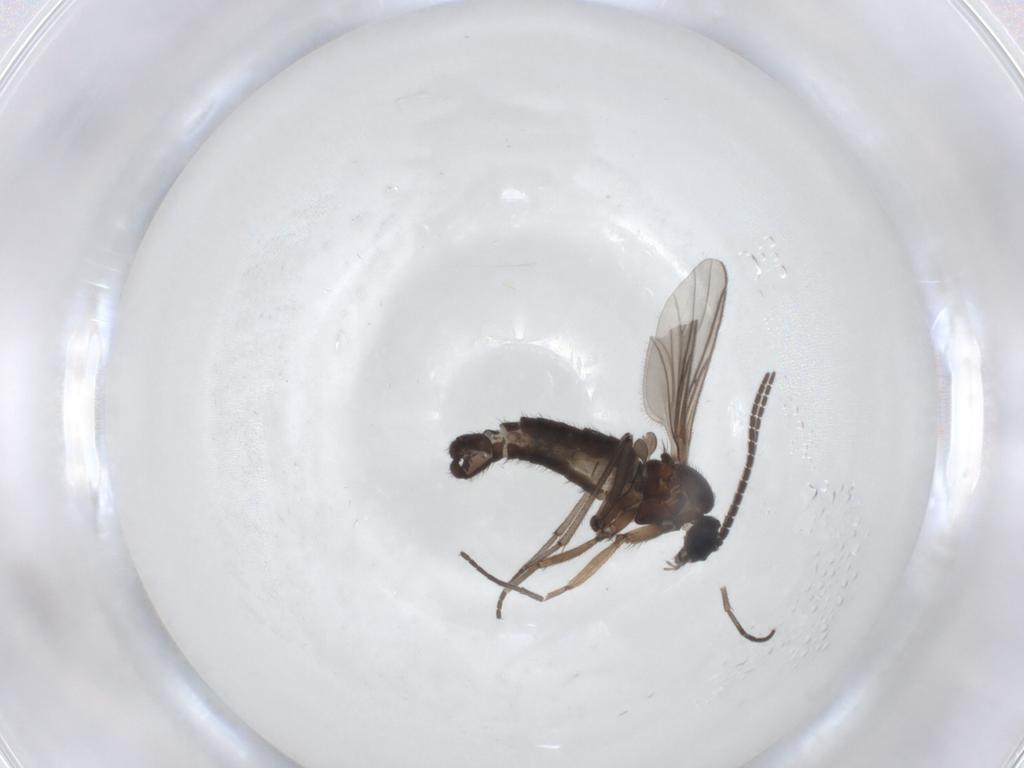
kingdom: Animalia
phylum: Arthropoda
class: Insecta
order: Diptera
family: Sciaridae
